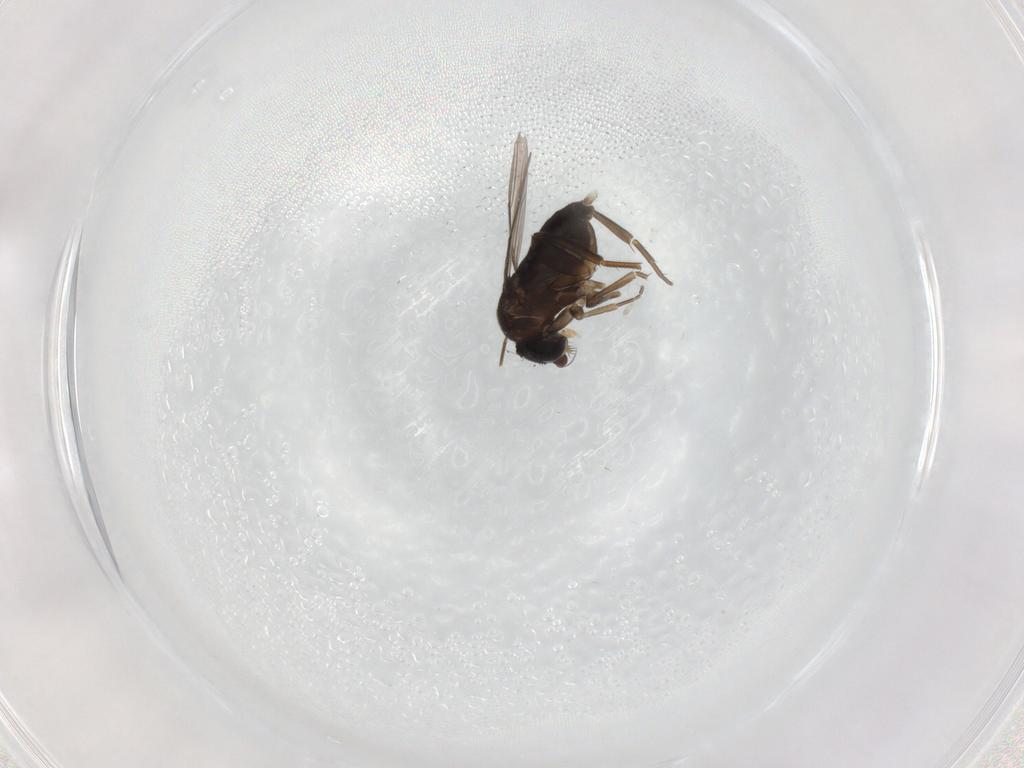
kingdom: Animalia
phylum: Arthropoda
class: Insecta
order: Diptera
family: Phoridae
